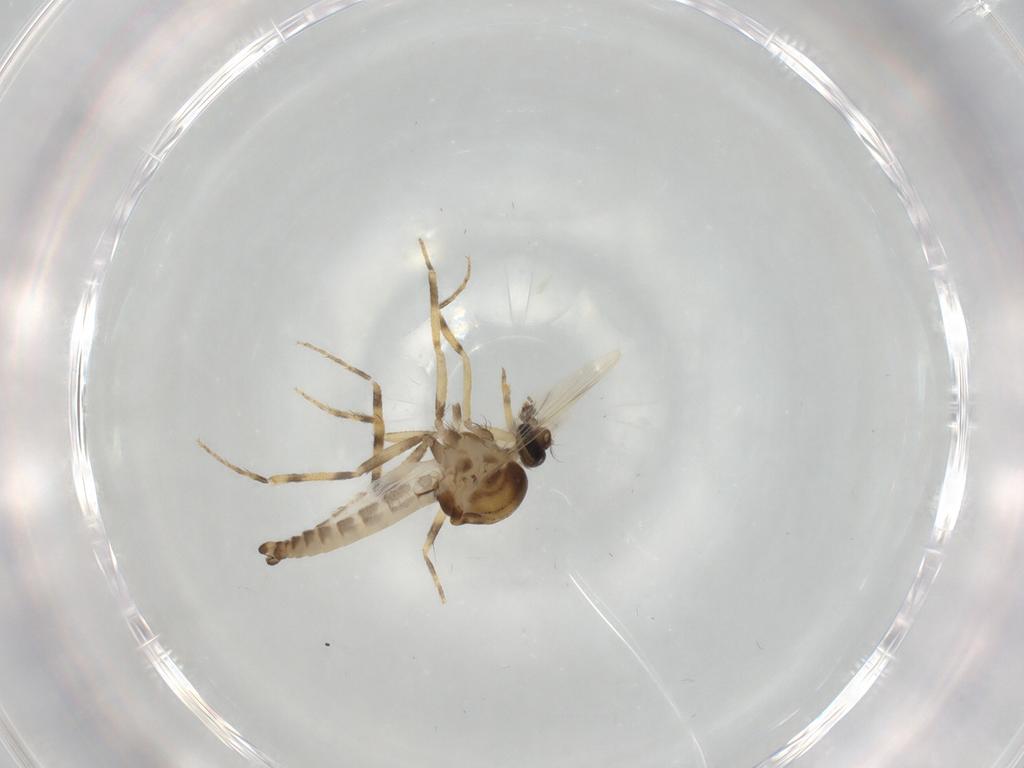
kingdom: Animalia
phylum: Arthropoda
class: Insecta
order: Diptera
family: Ceratopogonidae
